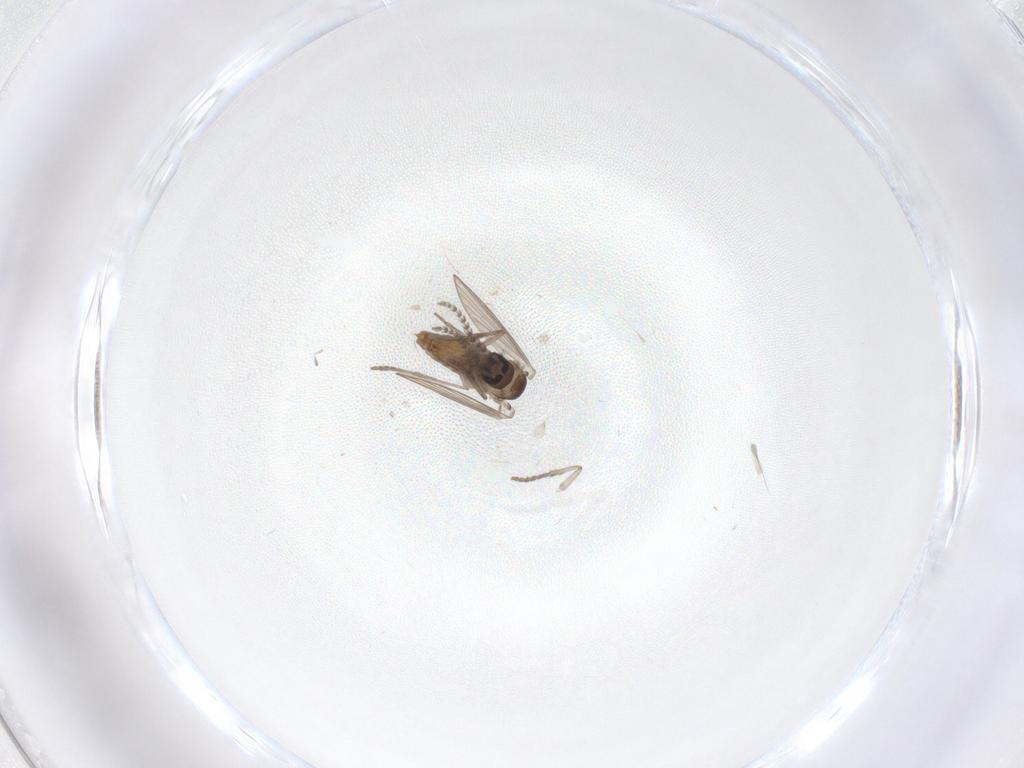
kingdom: Animalia
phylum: Arthropoda
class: Insecta
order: Diptera
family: Psychodidae
